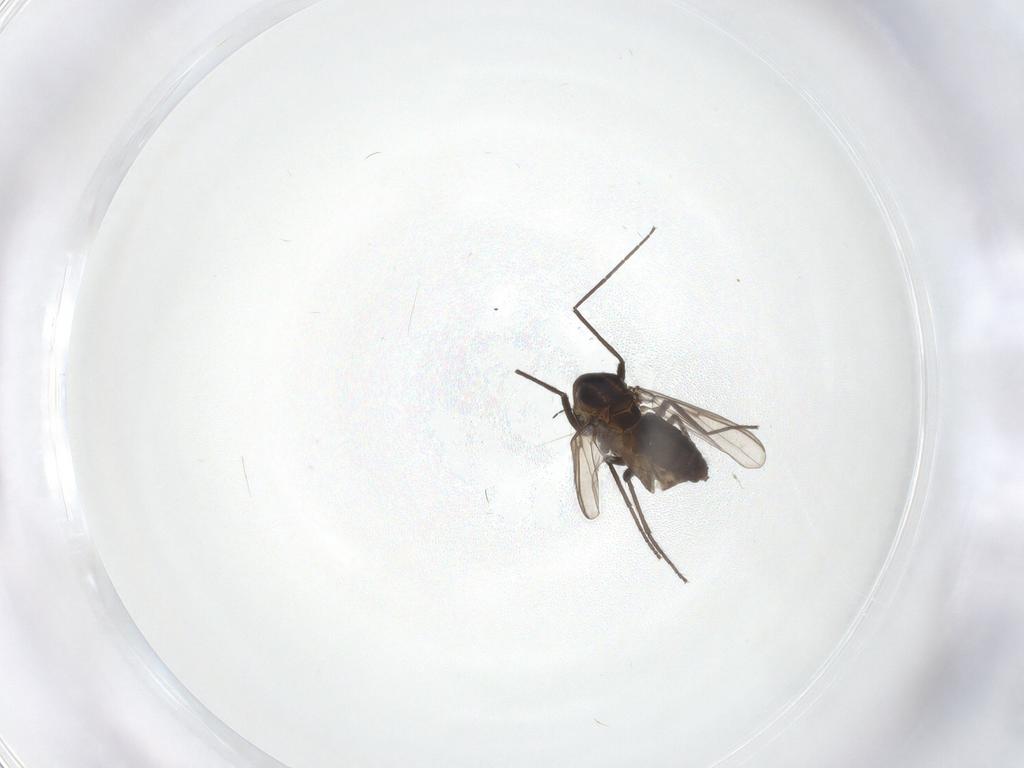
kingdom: Animalia
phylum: Arthropoda
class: Insecta
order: Diptera
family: Chironomidae
